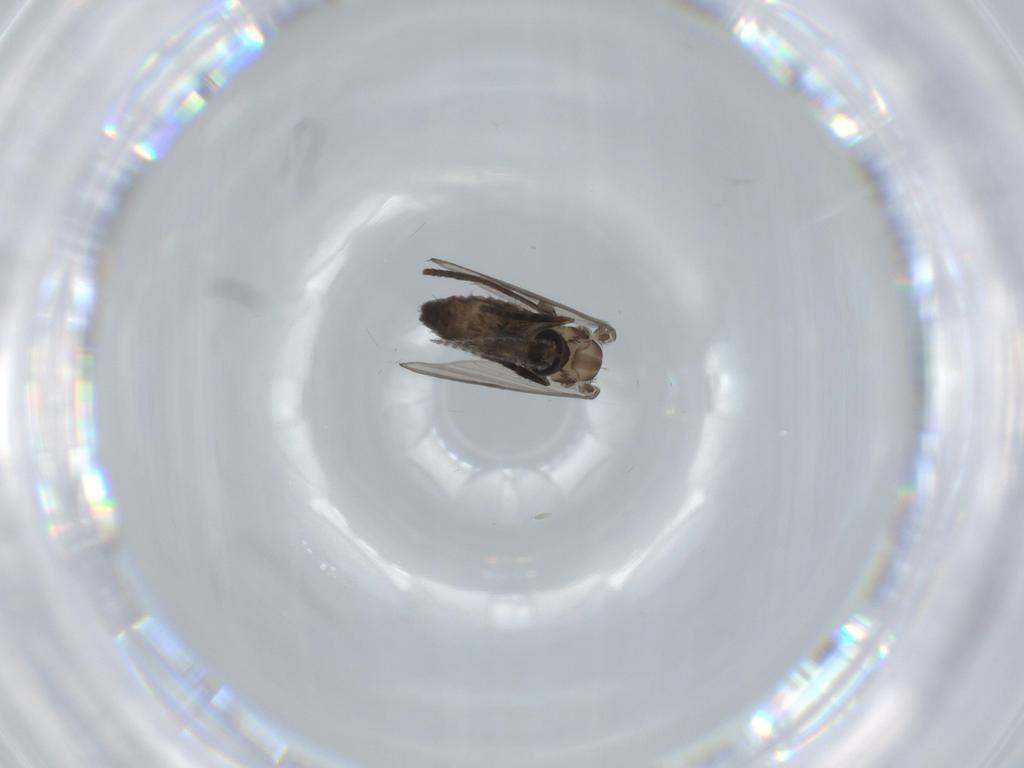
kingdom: Animalia
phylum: Arthropoda
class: Insecta
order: Diptera
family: Psychodidae
